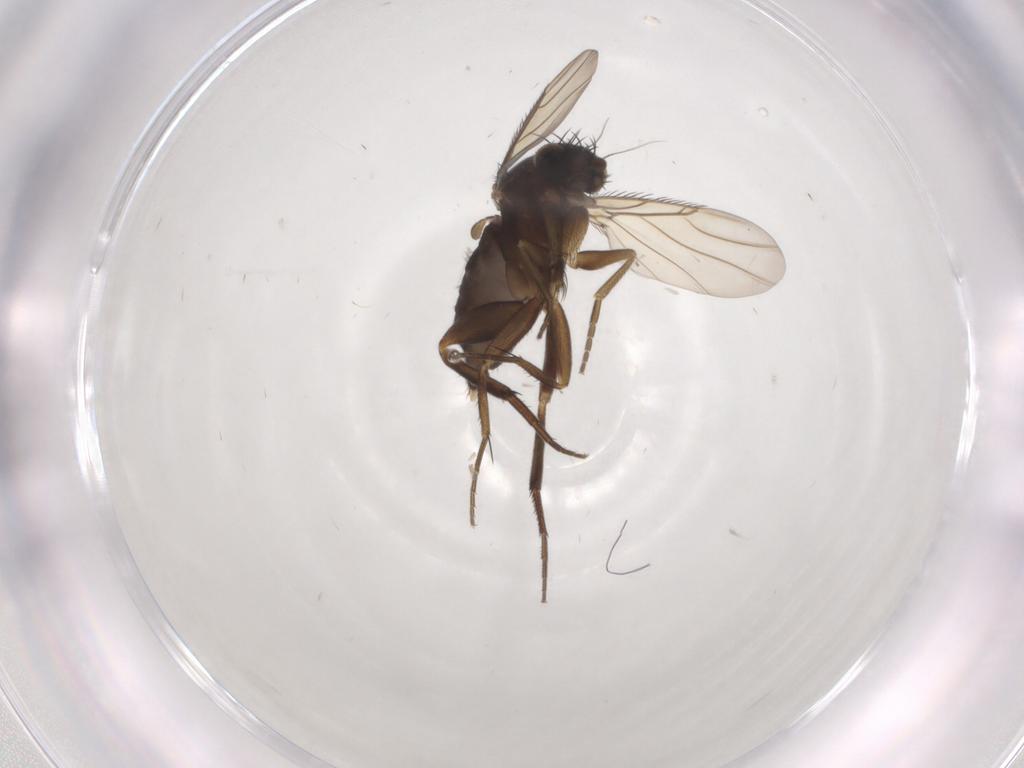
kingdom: Animalia
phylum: Arthropoda
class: Insecta
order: Diptera
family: Phoridae
